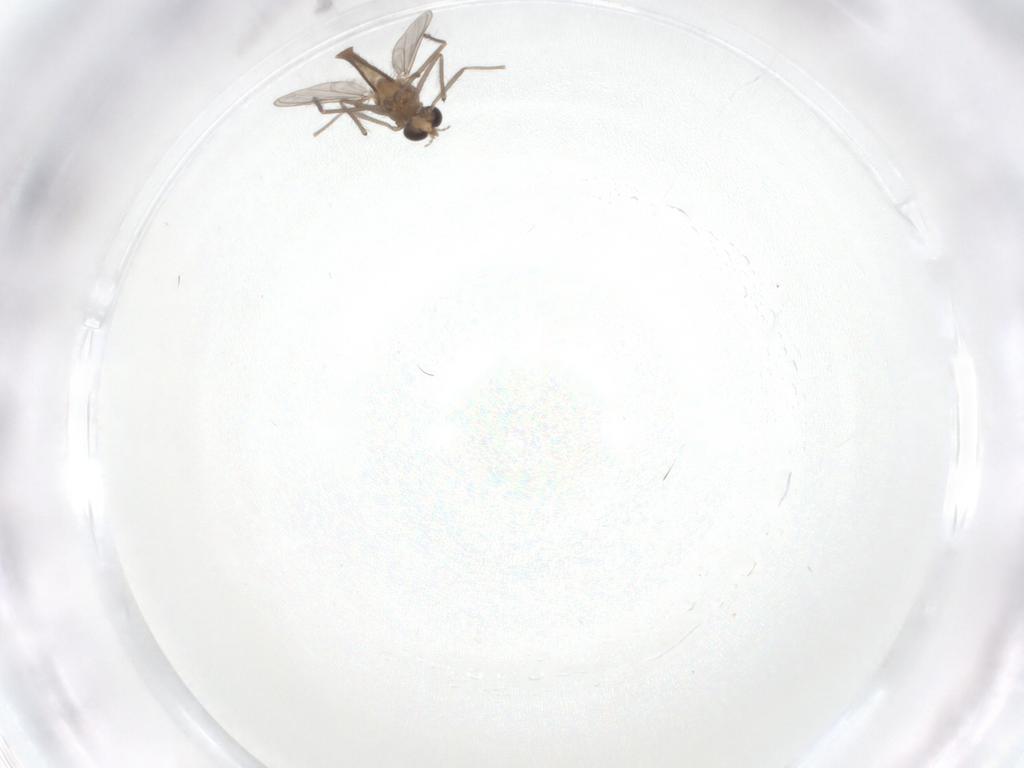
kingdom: Animalia
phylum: Arthropoda
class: Insecta
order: Diptera
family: Chironomidae
